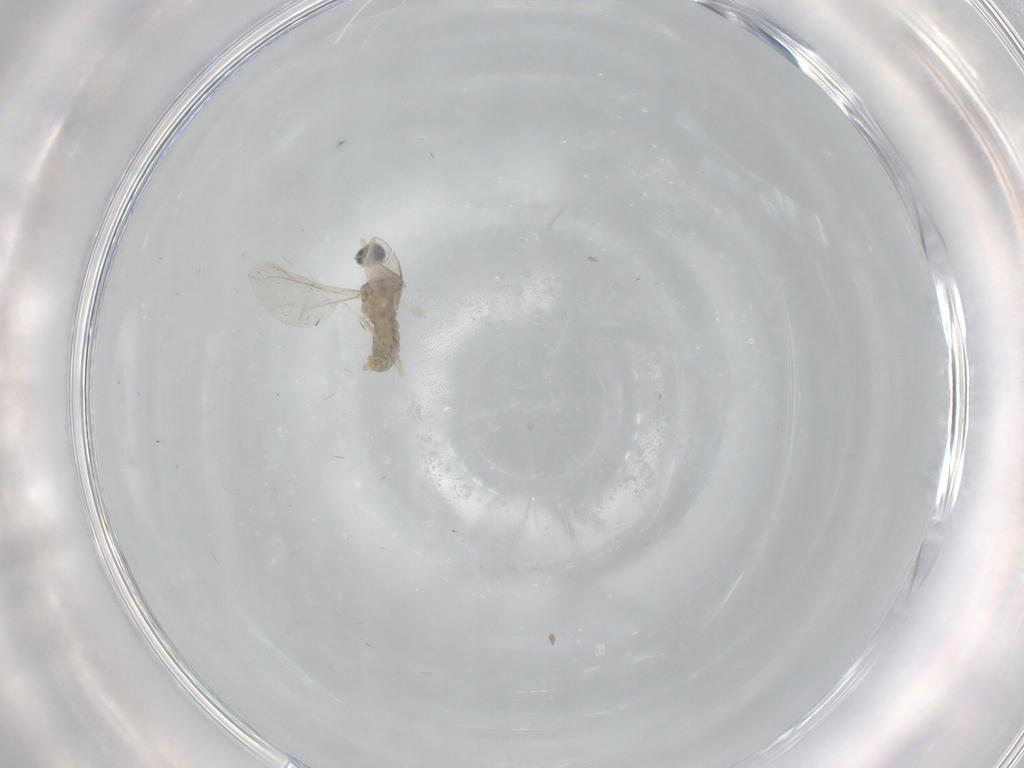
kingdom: Animalia
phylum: Arthropoda
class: Insecta
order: Diptera
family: Cecidomyiidae
